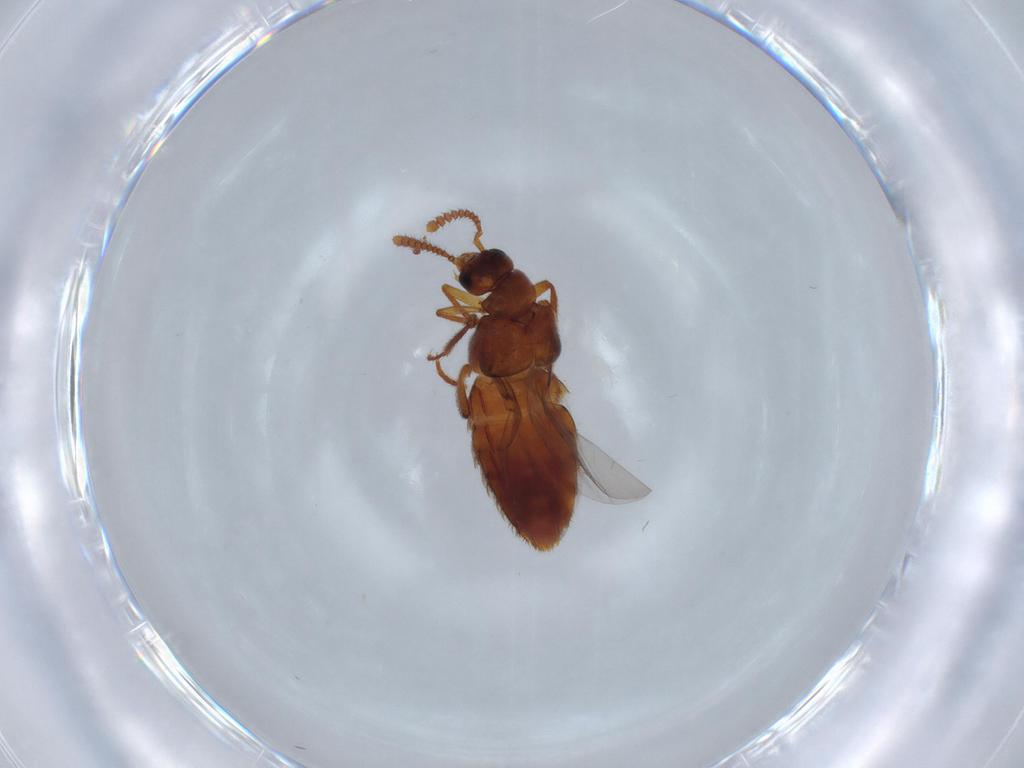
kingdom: Animalia
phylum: Arthropoda
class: Insecta
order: Coleoptera
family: Staphylinidae
